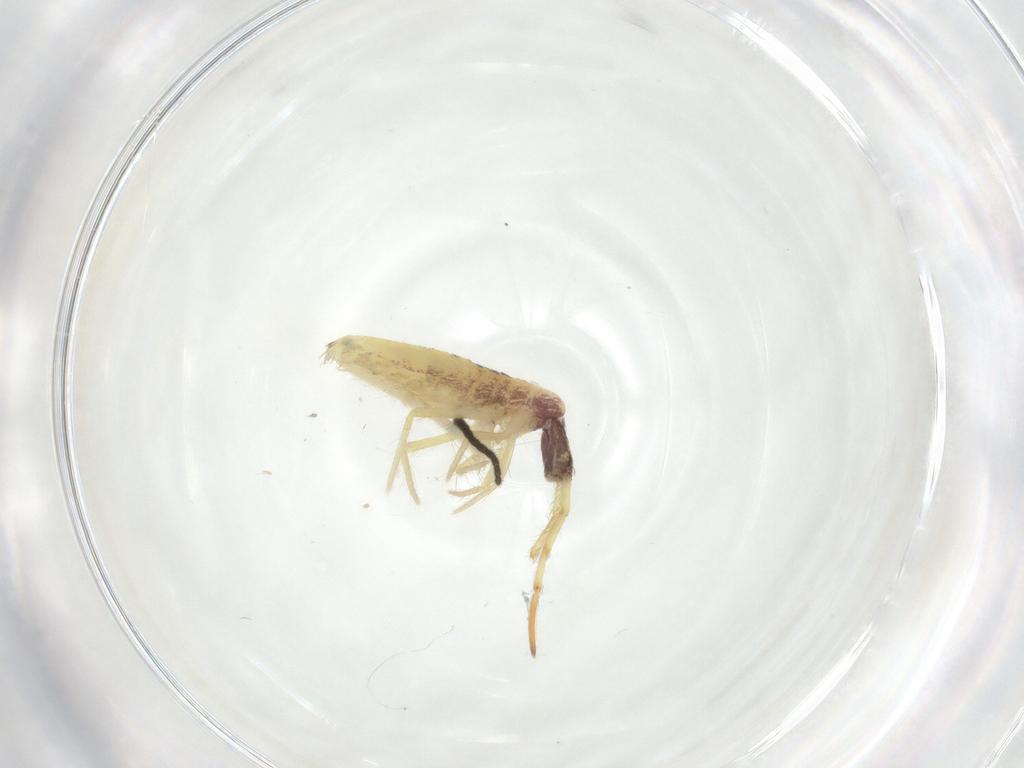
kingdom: Animalia
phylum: Arthropoda
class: Collembola
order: Entomobryomorpha
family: Entomobryidae
